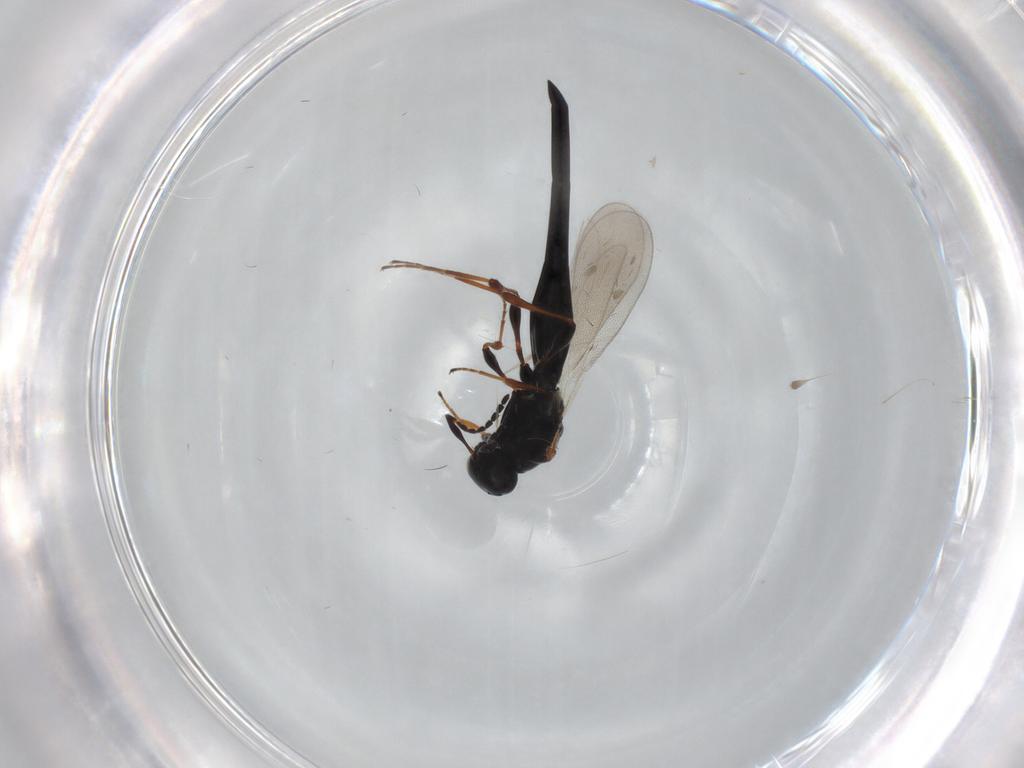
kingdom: Animalia
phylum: Arthropoda
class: Insecta
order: Hymenoptera
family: Platygastridae
